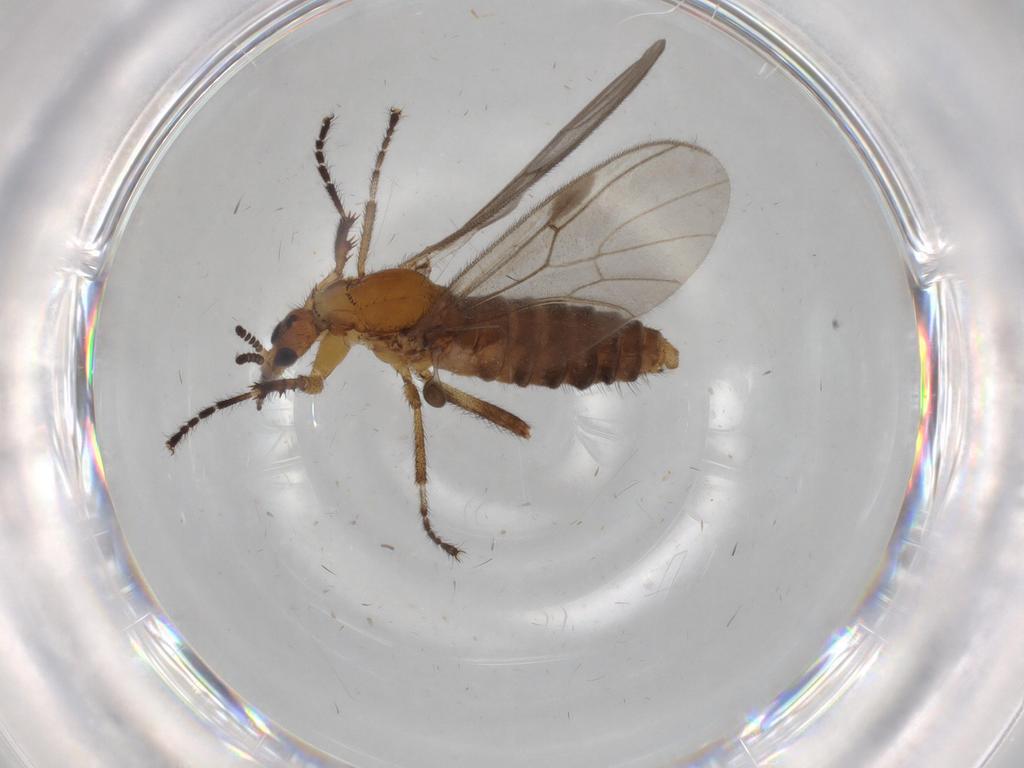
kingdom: Animalia
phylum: Arthropoda
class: Insecta
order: Diptera
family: Bibionidae
